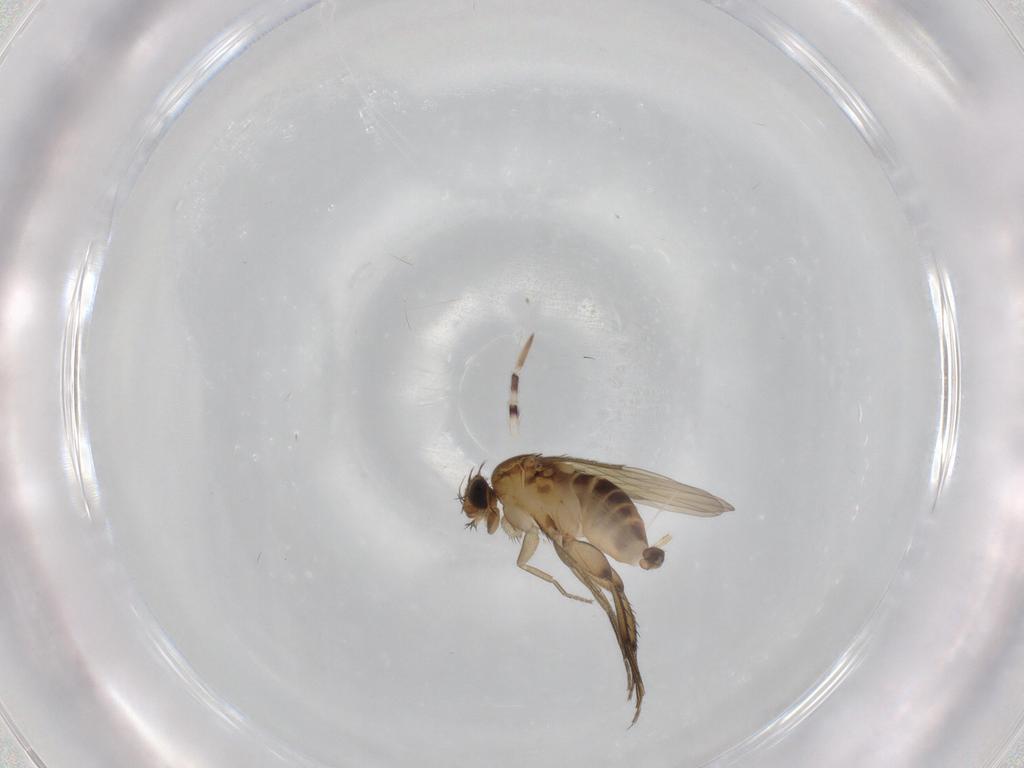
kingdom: Animalia
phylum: Arthropoda
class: Insecta
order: Diptera
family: Phoridae
